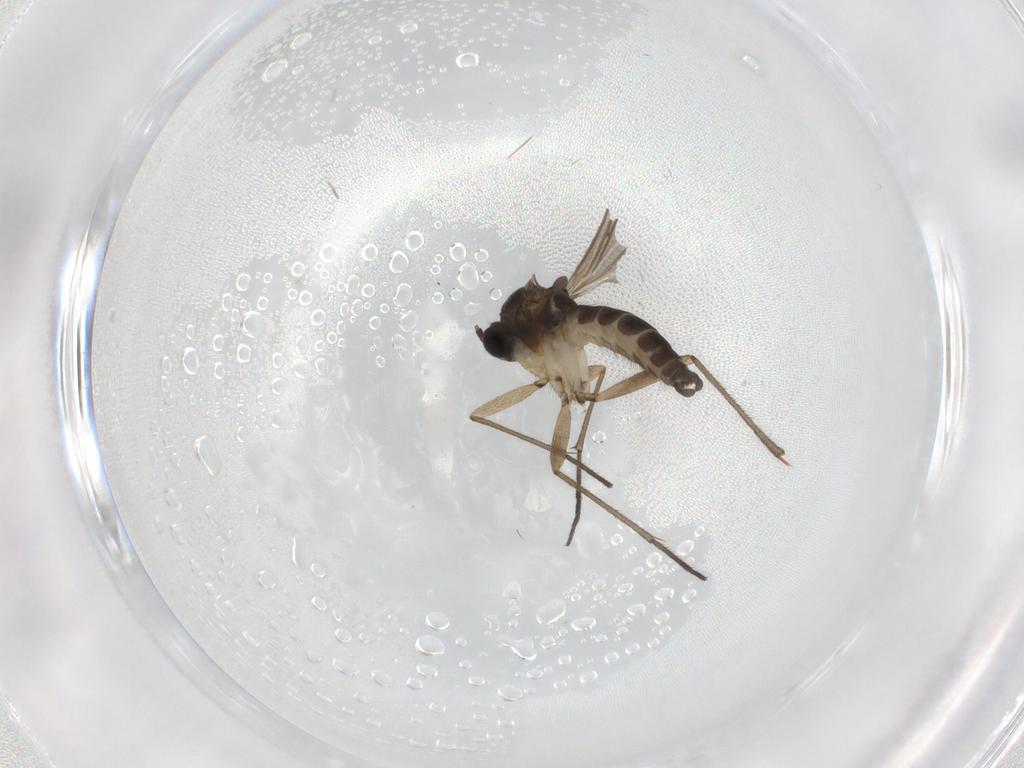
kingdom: Animalia
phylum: Arthropoda
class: Insecta
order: Diptera
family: Sciaridae
